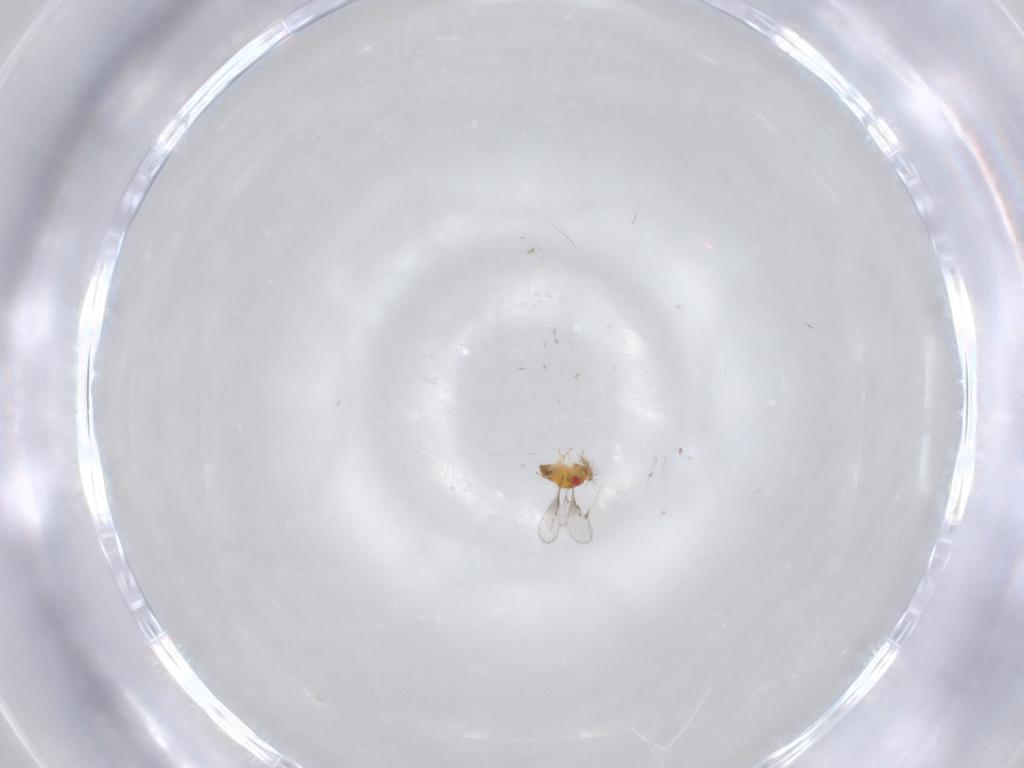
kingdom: Animalia
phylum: Arthropoda
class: Insecta
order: Hymenoptera
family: Trichogrammatidae
